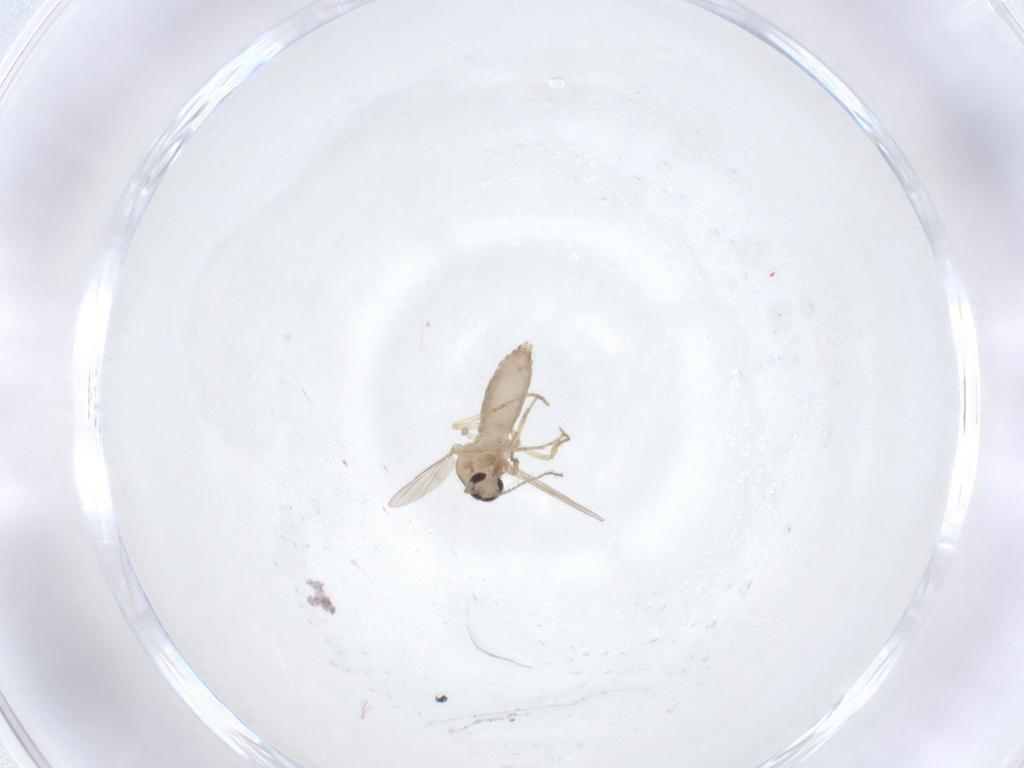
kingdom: Animalia
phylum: Arthropoda
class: Insecta
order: Diptera
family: Ceratopogonidae
